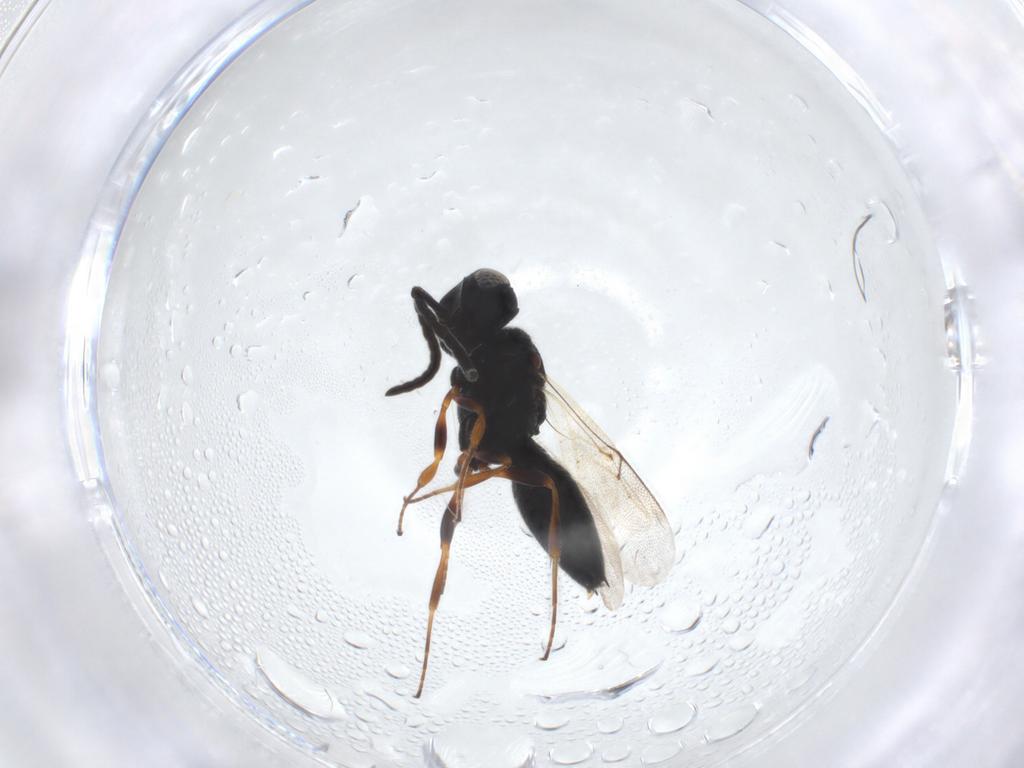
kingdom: Animalia
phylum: Arthropoda
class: Insecta
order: Hymenoptera
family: Scelionidae
